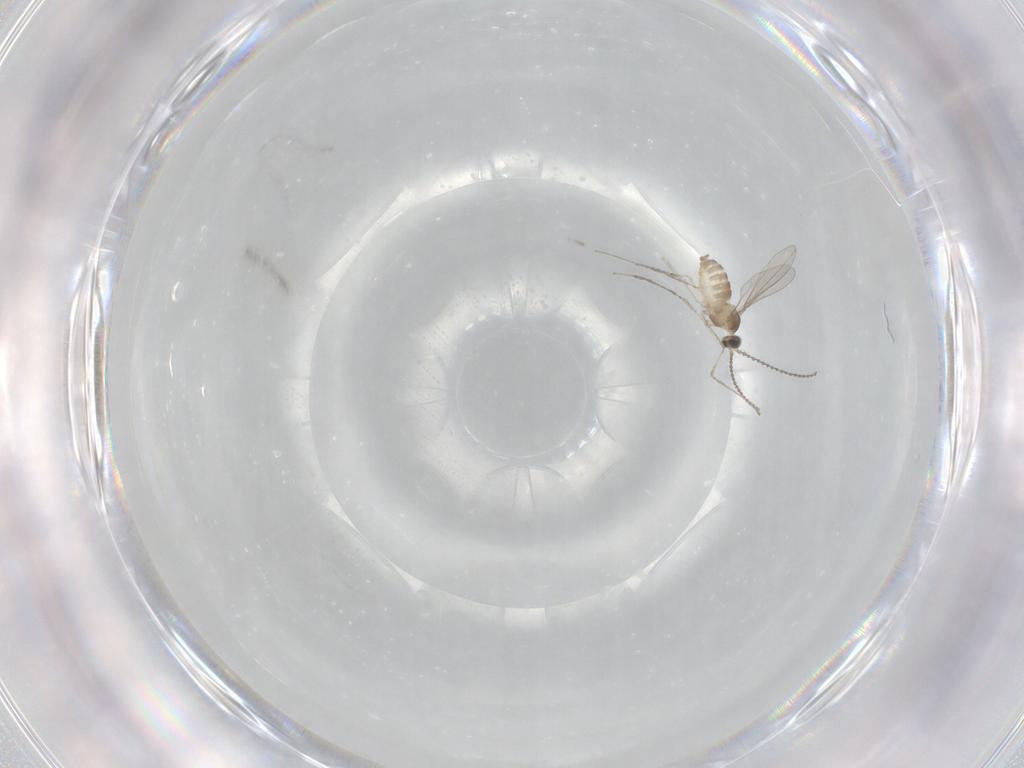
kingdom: Animalia
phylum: Arthropoda
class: Insecta
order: Diptera
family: Cecidomyiidae
